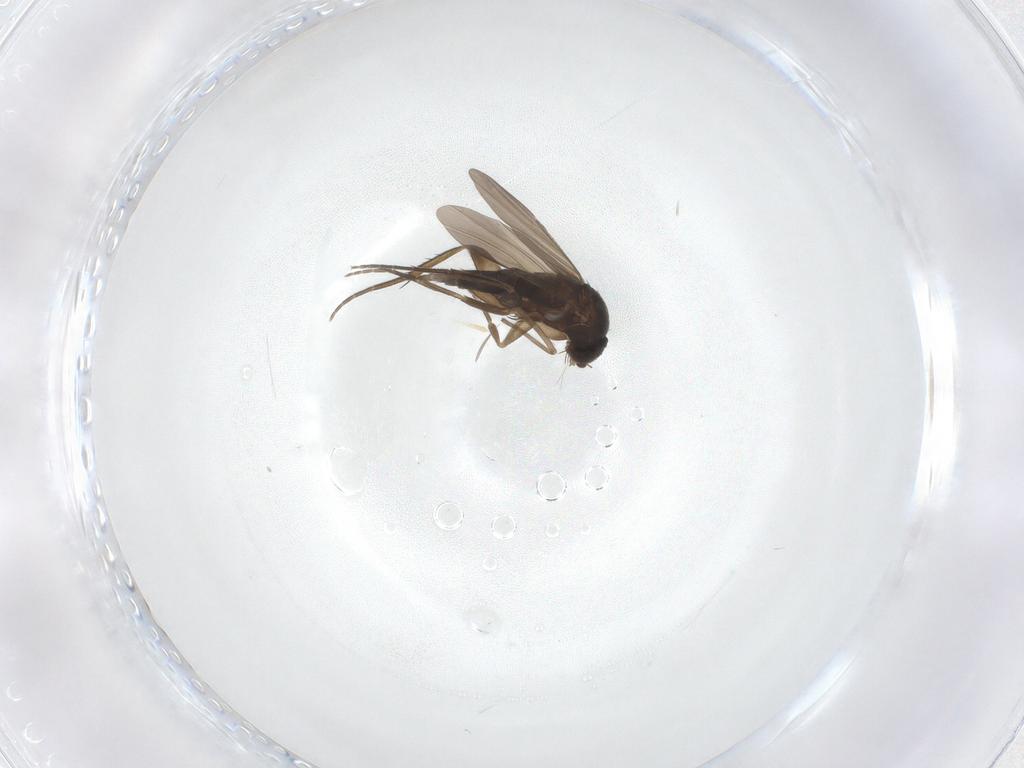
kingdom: Animalia
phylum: Arthropoda
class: Insecta
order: Diptera
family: Phoridae
